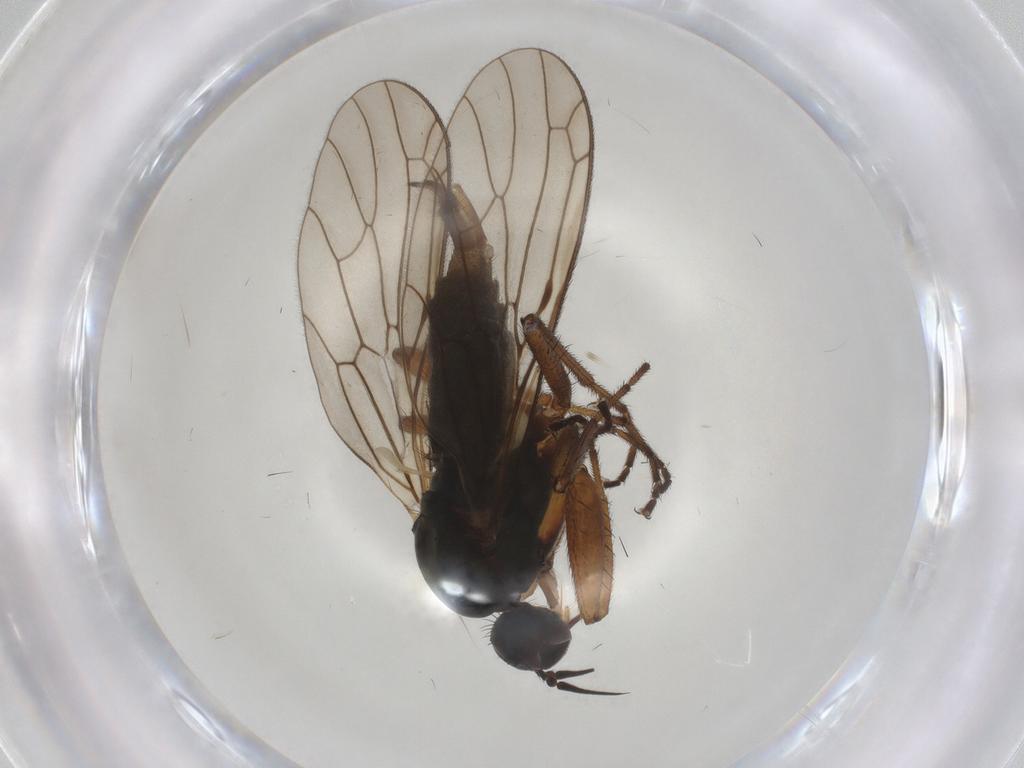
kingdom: Animalia
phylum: Arthropoda
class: Insecta
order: Diptera
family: Empididae
